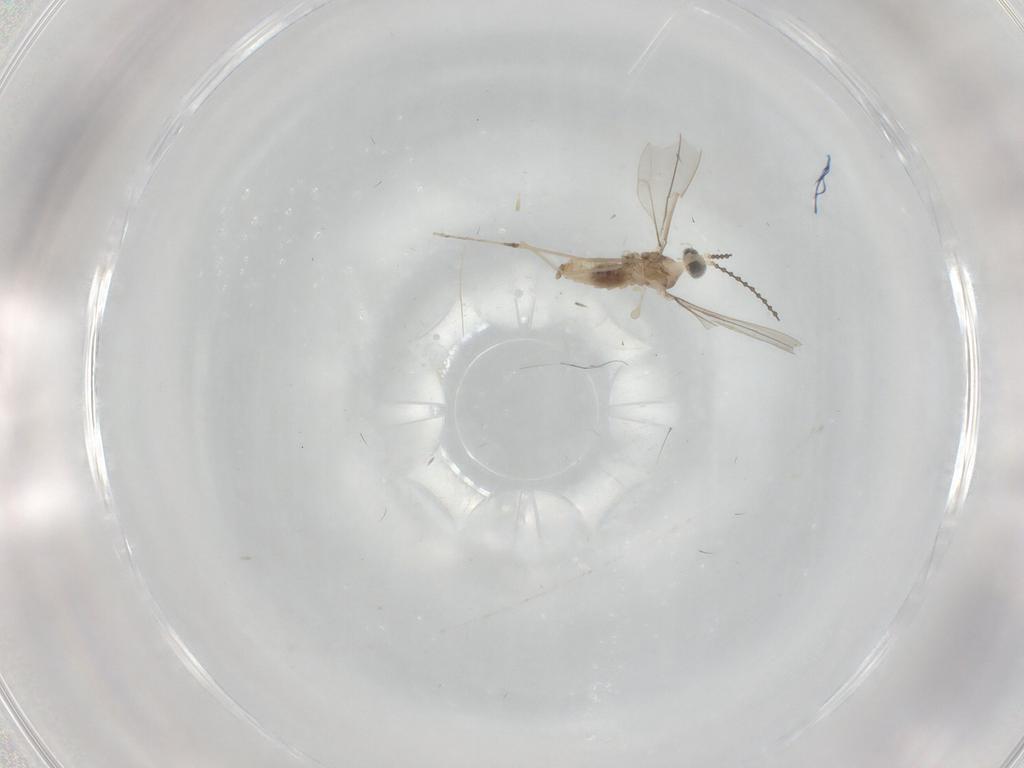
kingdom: Animalia
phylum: Arthropoda
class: Insecta
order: Diptera
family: Cecidomyiidae
